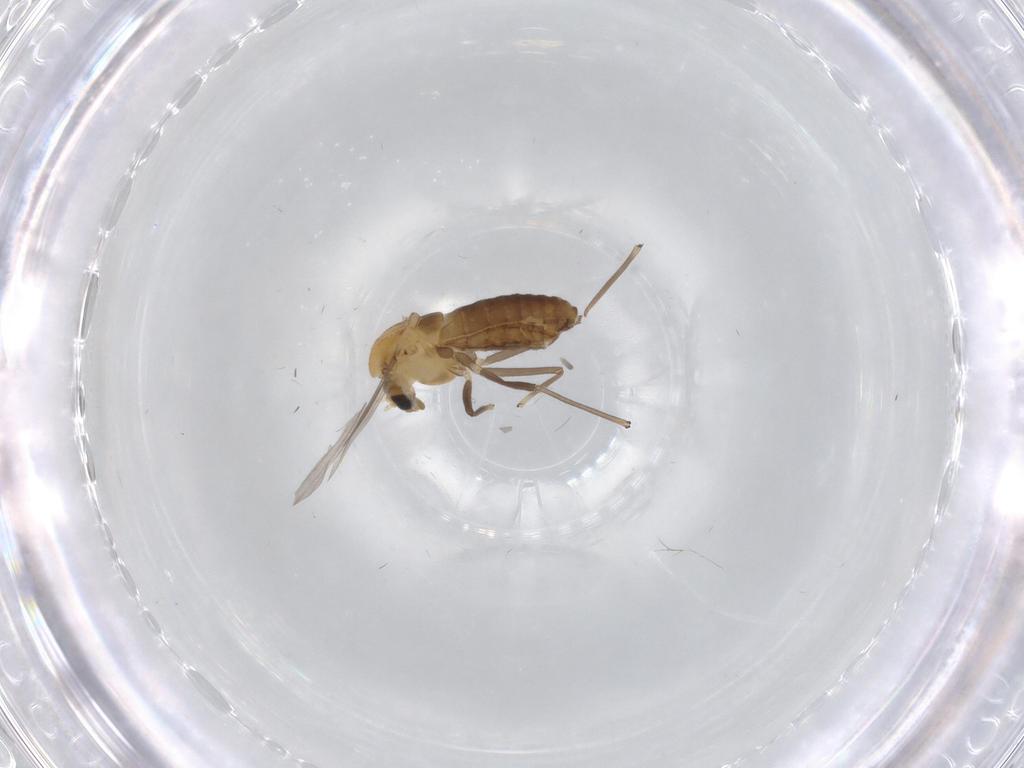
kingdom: Animalia
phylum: Arthropoda
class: Insecta
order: Diptera
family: Chironomidae
